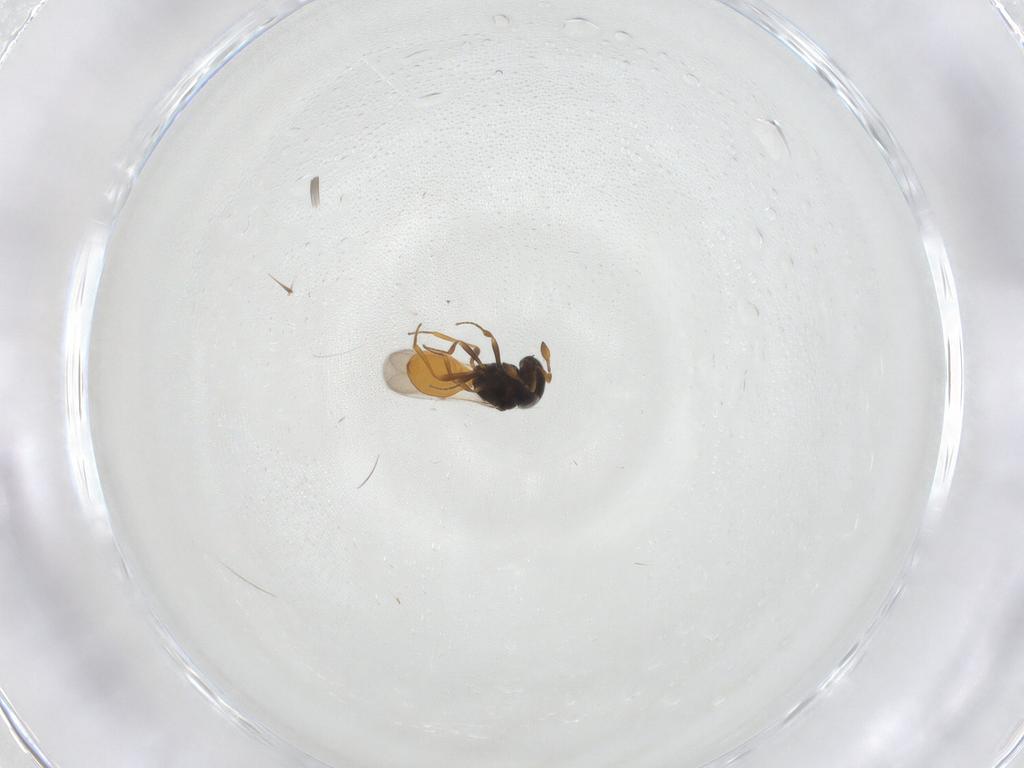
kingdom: Animalia
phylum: Arthropoda
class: Insecta
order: Hymenoptera
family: Scelionidae
